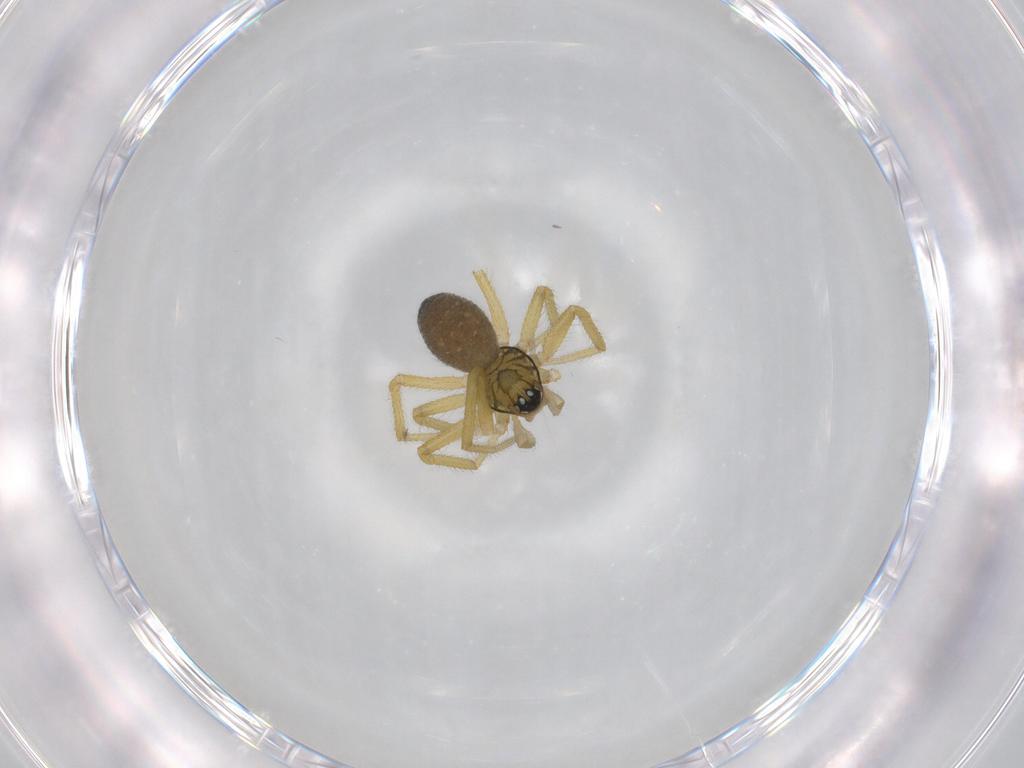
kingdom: Animalia
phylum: Arthropoda
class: Arachnida
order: Araneae
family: Linyphiidae
